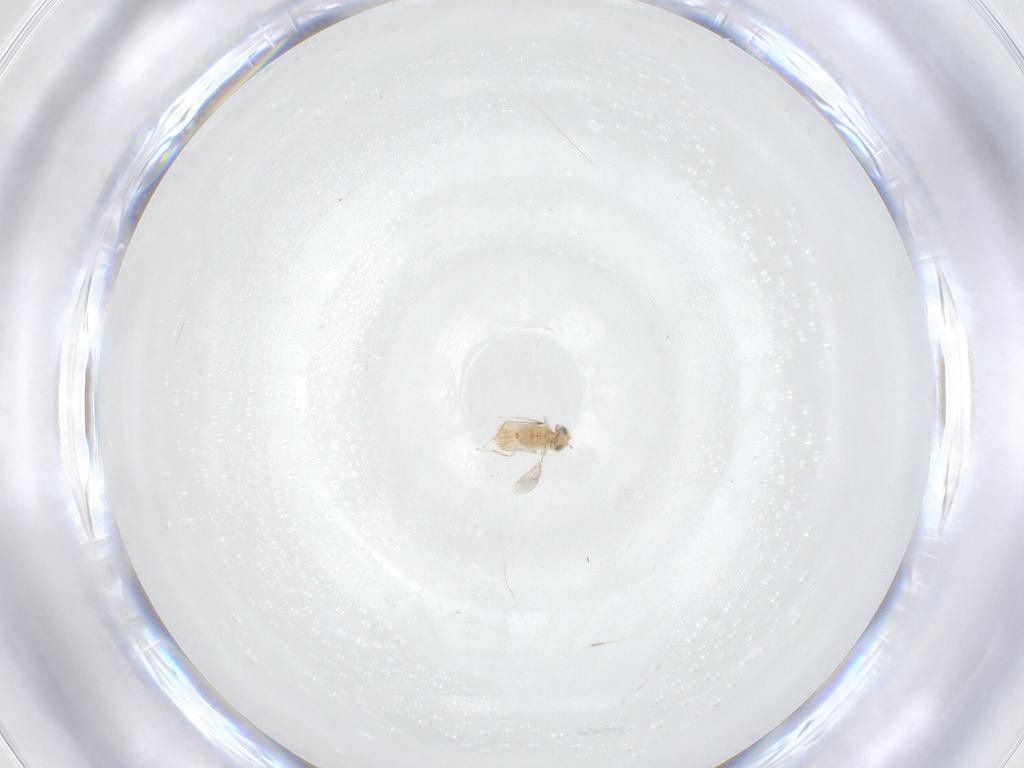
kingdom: Animalia
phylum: Arthropoda
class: Insecta
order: Hymenoptera
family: Aphelinidae
